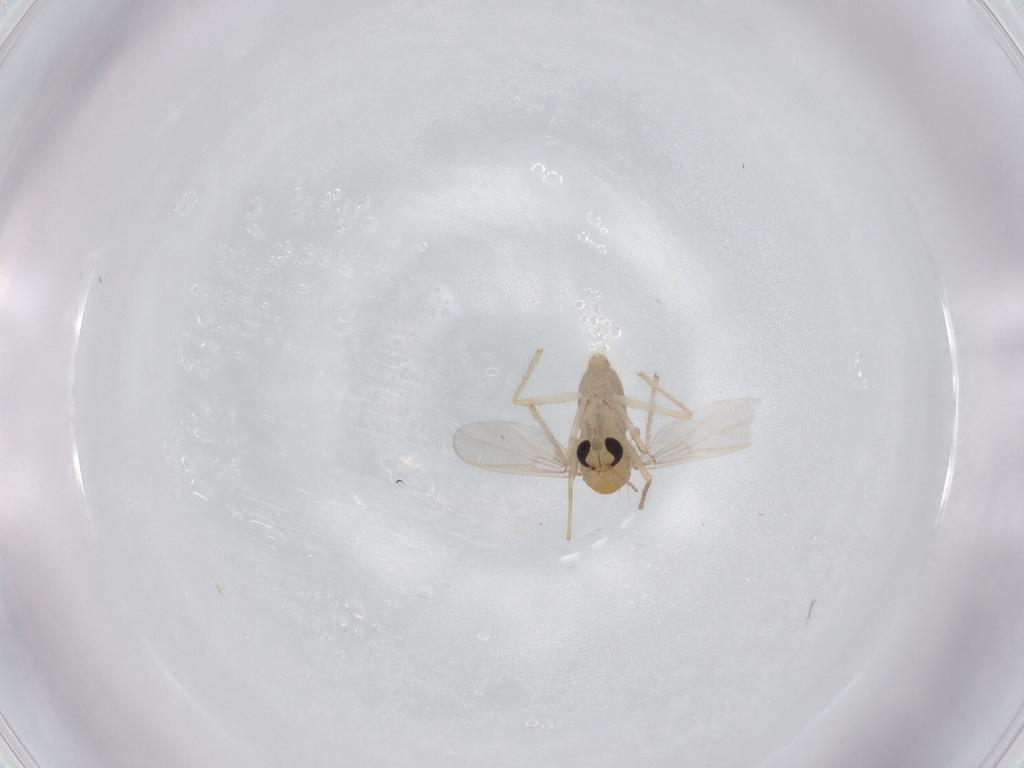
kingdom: Animalia
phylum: Arthropoda
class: Insecta
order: Diptera
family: Chironomidae
